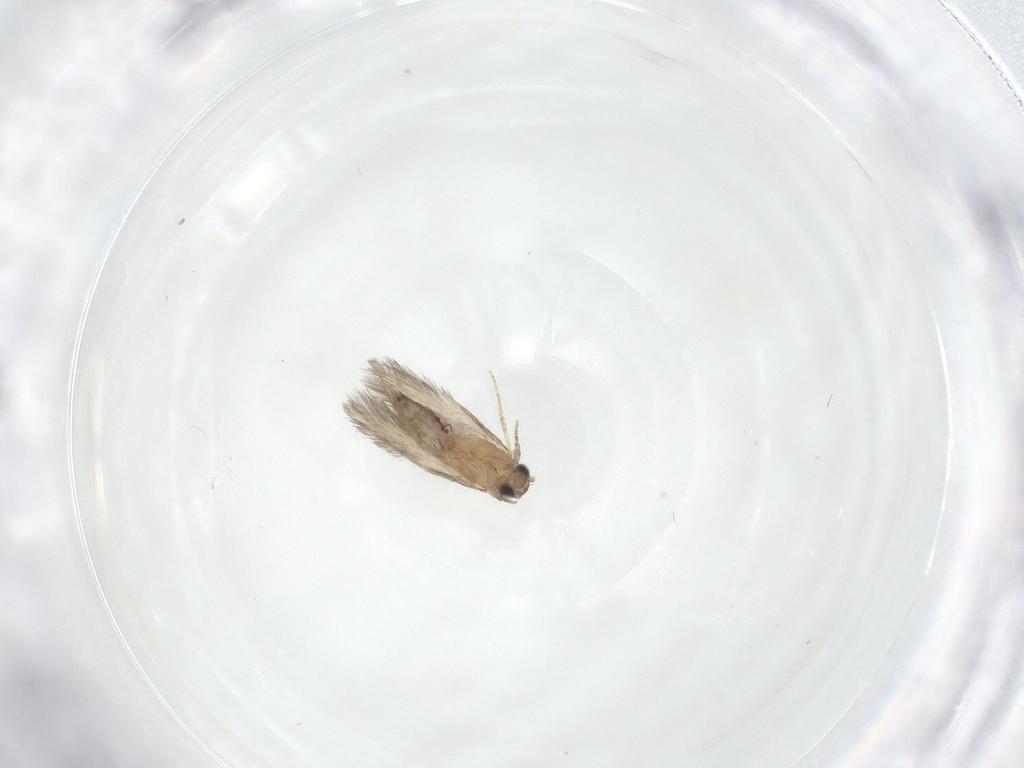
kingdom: Animalia
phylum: Arthropoda
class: Insecta
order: Trichoptera
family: Hydroptilidae
